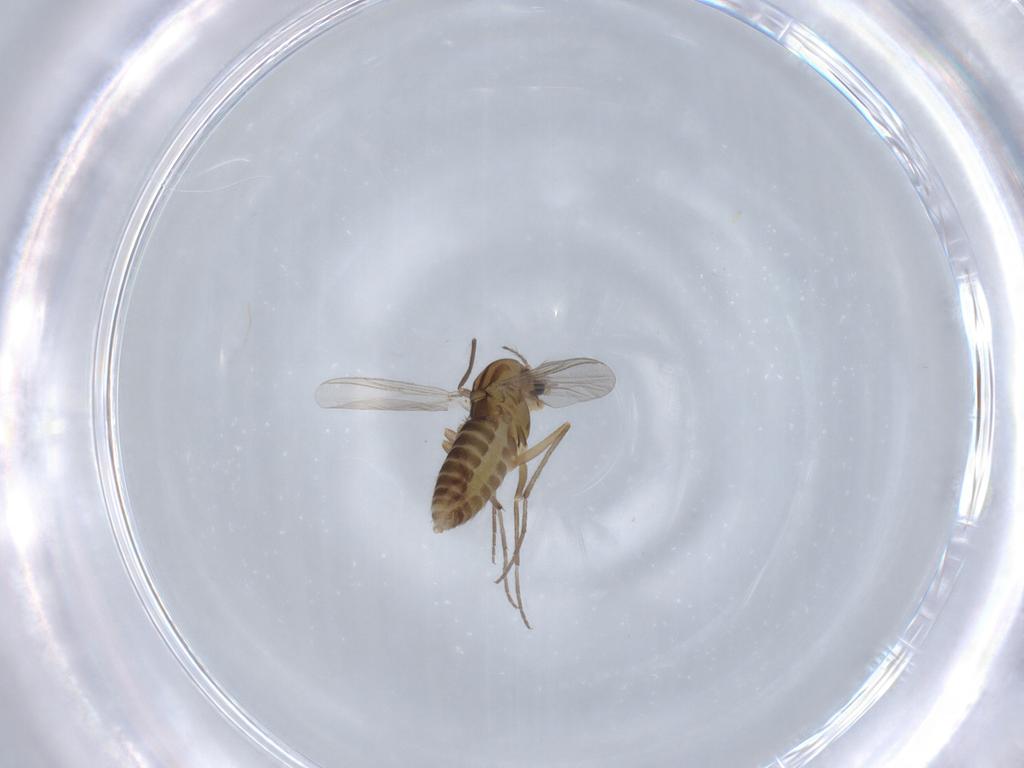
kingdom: Animalia
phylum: Arthropoda
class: Insecta
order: Diptera
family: Chironomidae
